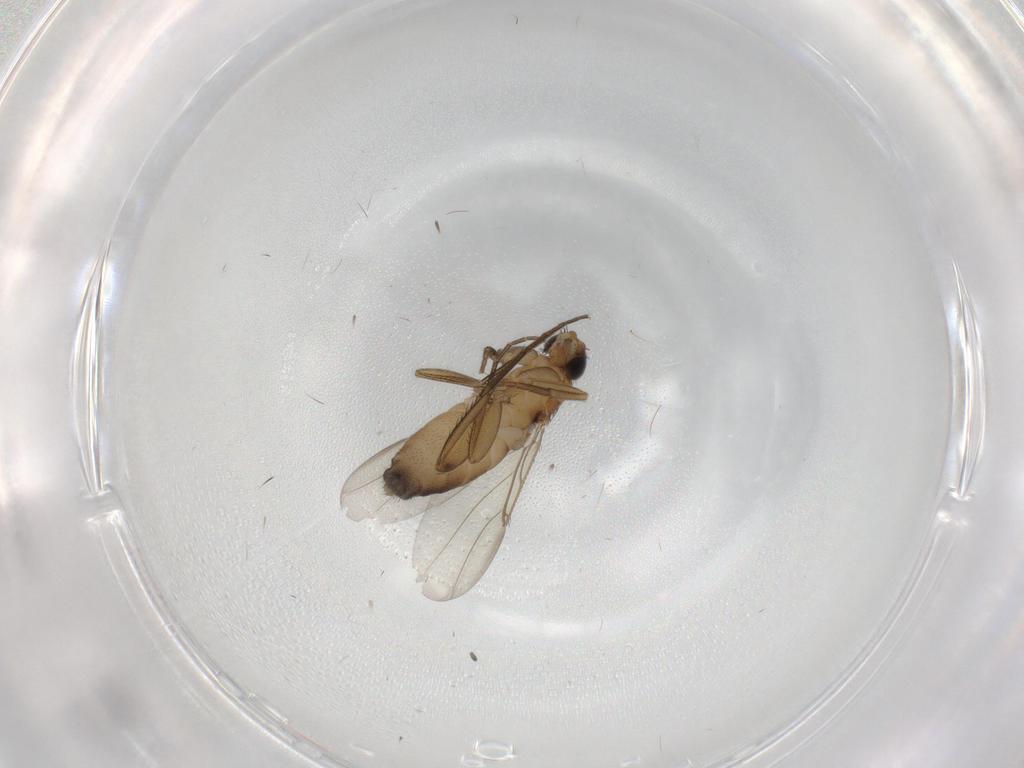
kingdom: Animalia
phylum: Arthropoda
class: Insecta
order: Diptera
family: Phoridae
